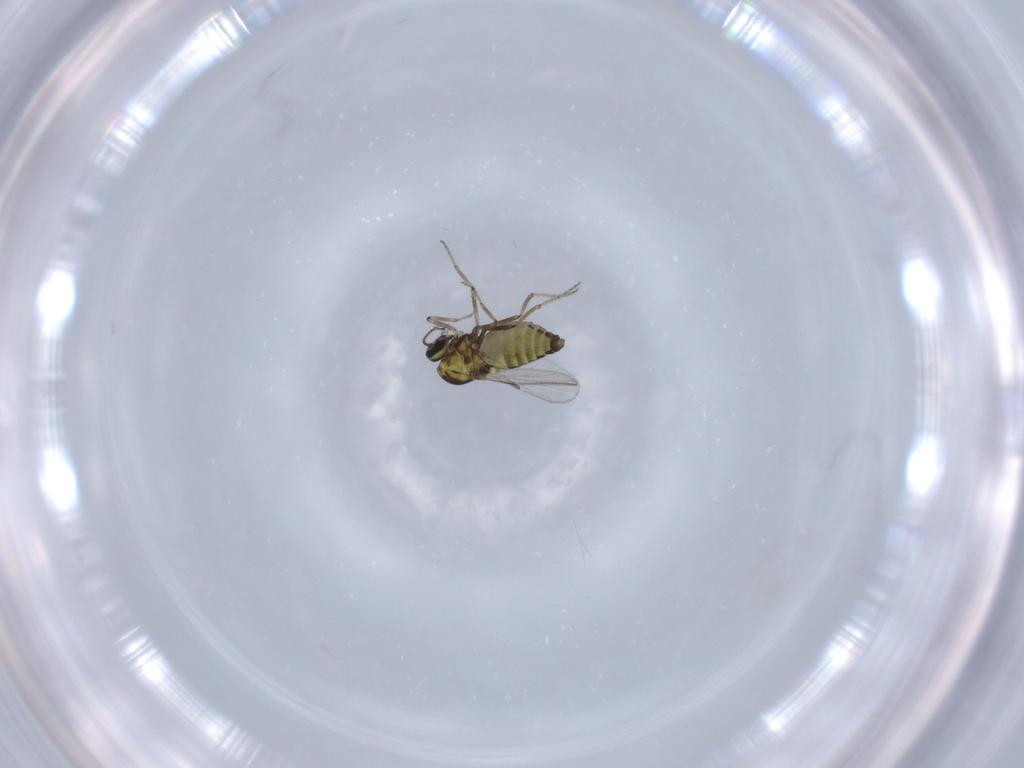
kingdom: Animalia
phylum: Arthropoda
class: Insecta
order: Diptera
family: Ceratopogonidae
